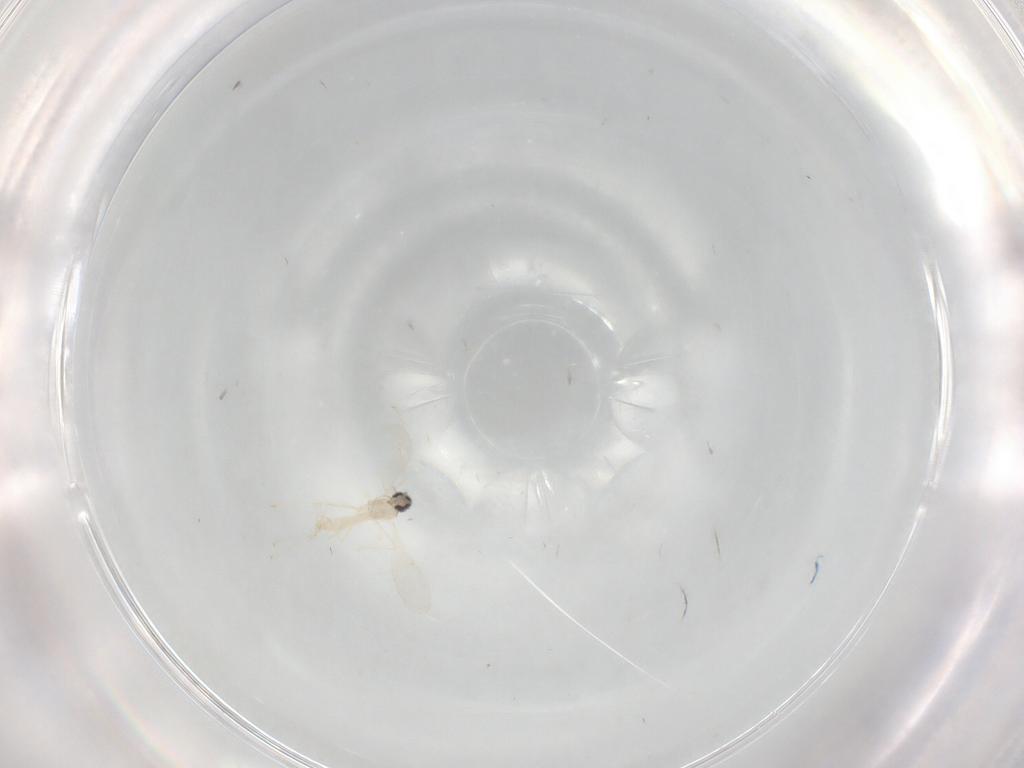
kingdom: Animalia
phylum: Arthropoda
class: Insecta
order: Diptera
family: Cecidomyiidae
